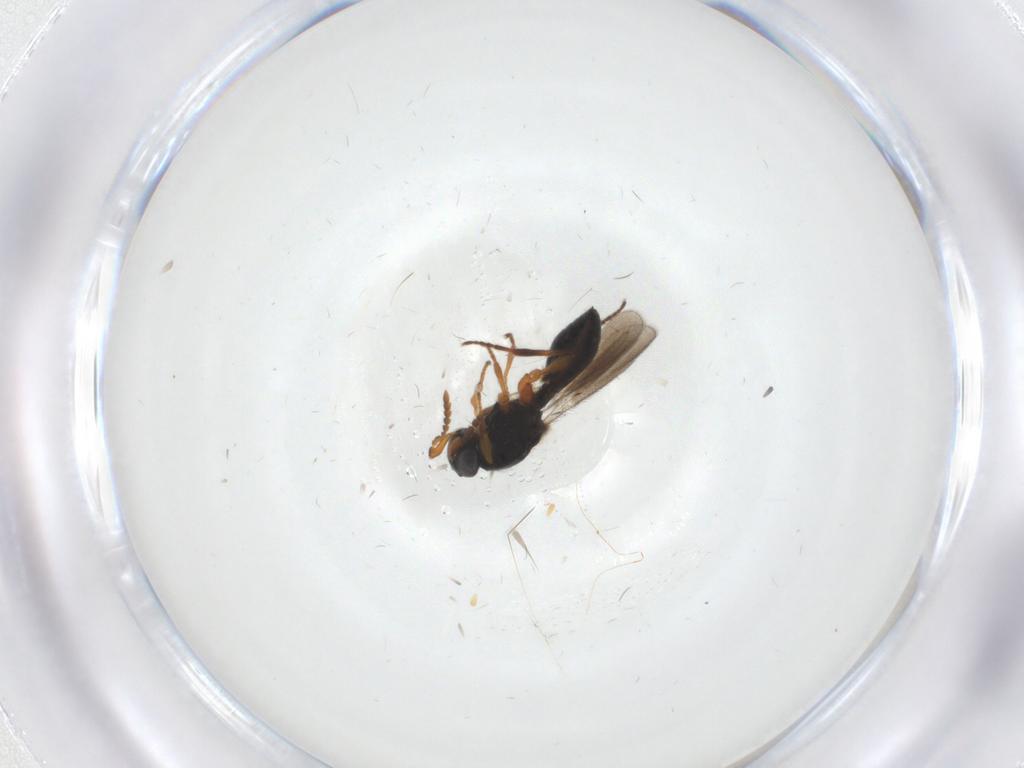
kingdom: Animalia
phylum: Arthropoda
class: Insecta
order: Hymenoptera
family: Platygastridae
